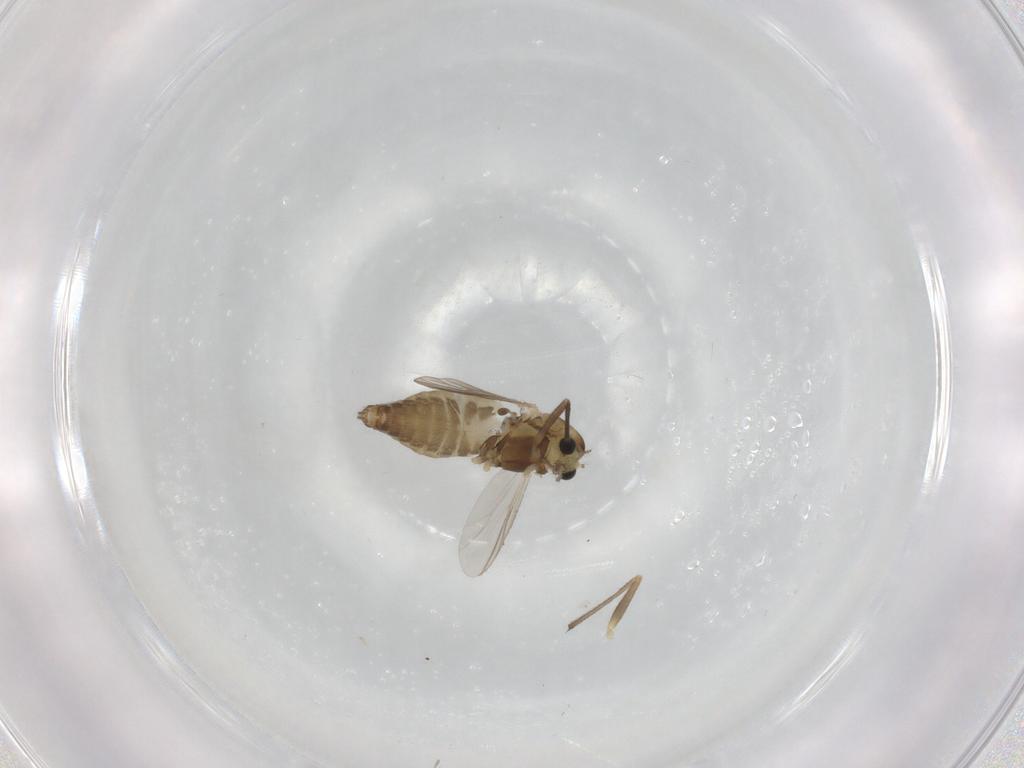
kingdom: Animalia
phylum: Arthropoda
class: Insecta
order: Diptera
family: Chironomidae
